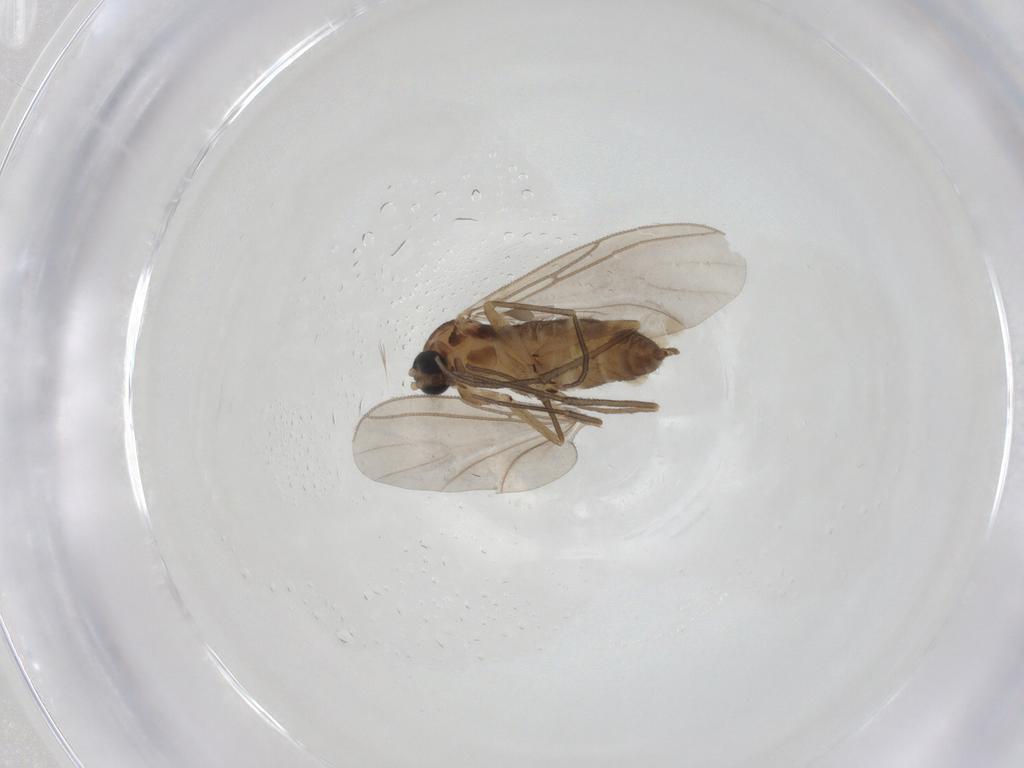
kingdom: Animalia
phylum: Arthropoda
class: Insecta
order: Diptera
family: Sciaridae
